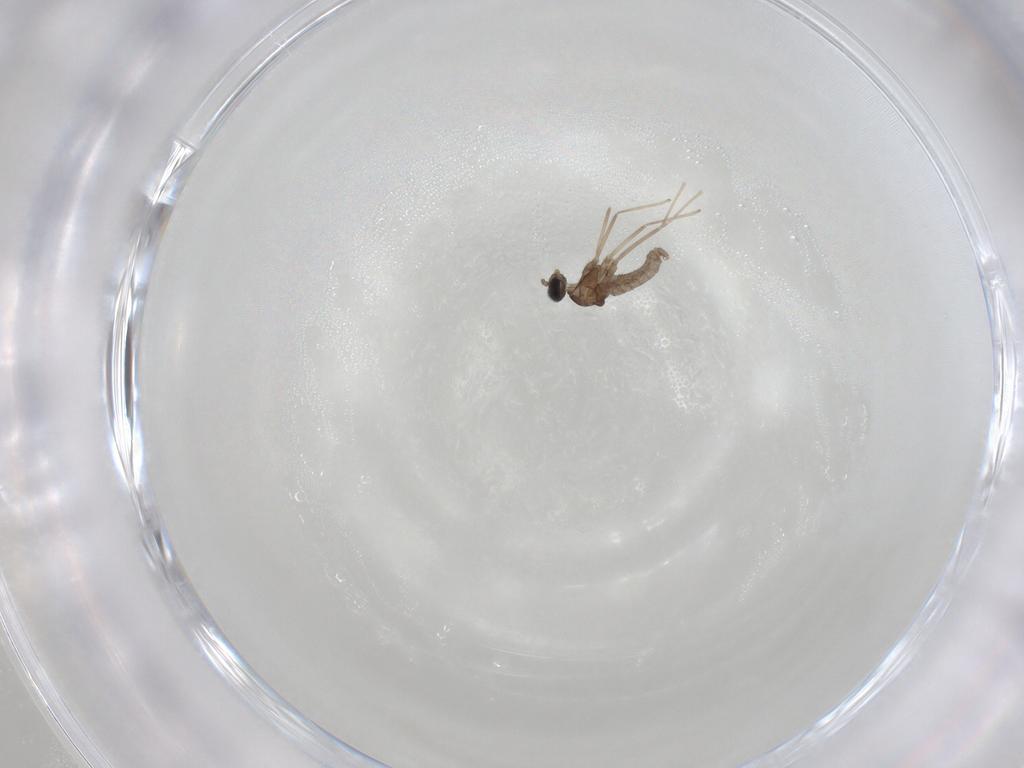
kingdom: Animalia
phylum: Arthropoda
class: Insecta
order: Diptera
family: Cecidomyiidae
